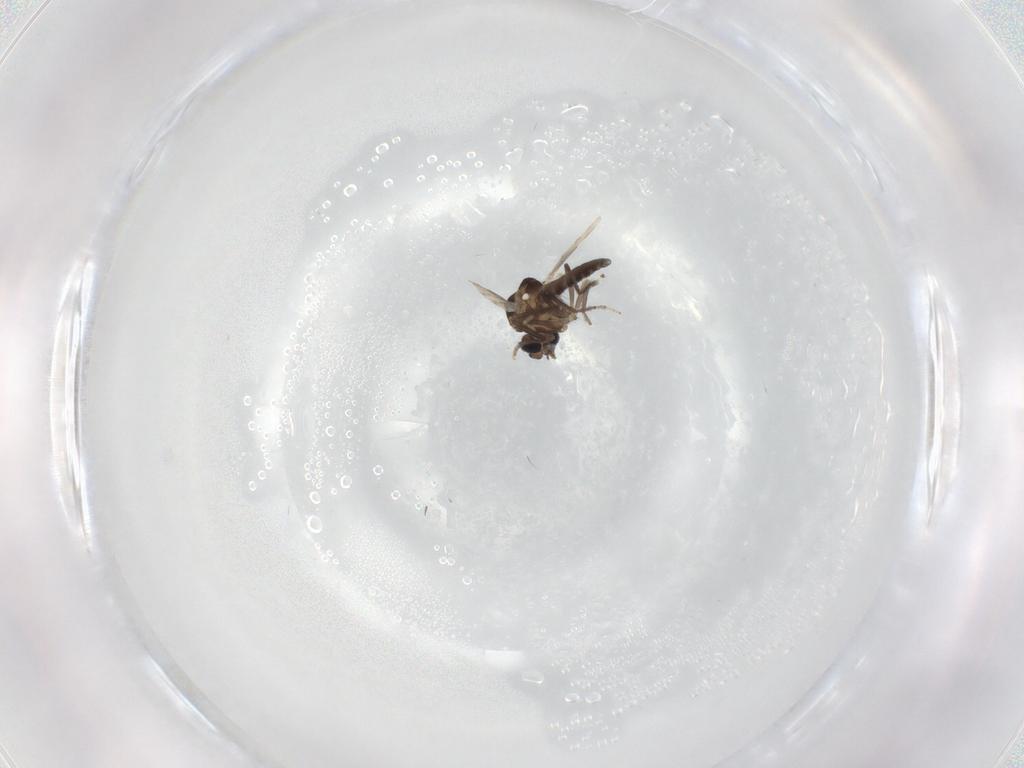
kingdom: Animalia
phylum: Arthropoda
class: Insecta
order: Diptera
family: Ceratopogonidae
